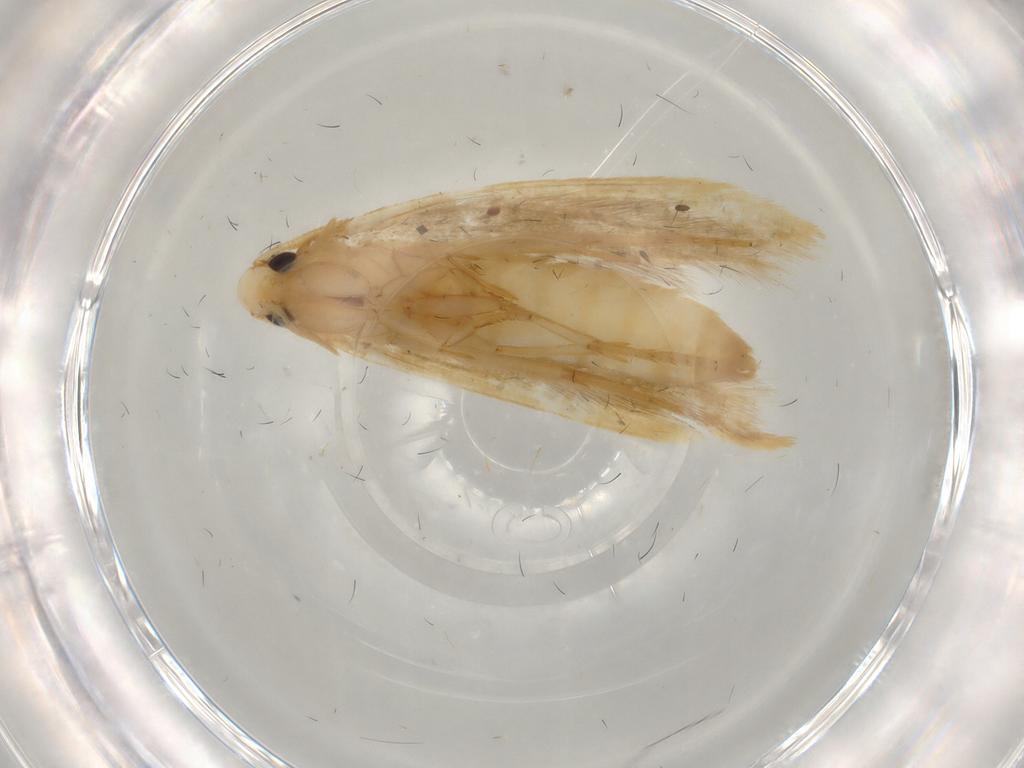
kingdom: Animalia
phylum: Arthropoda
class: Insecta
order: Lepidoptera
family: Tineidae
